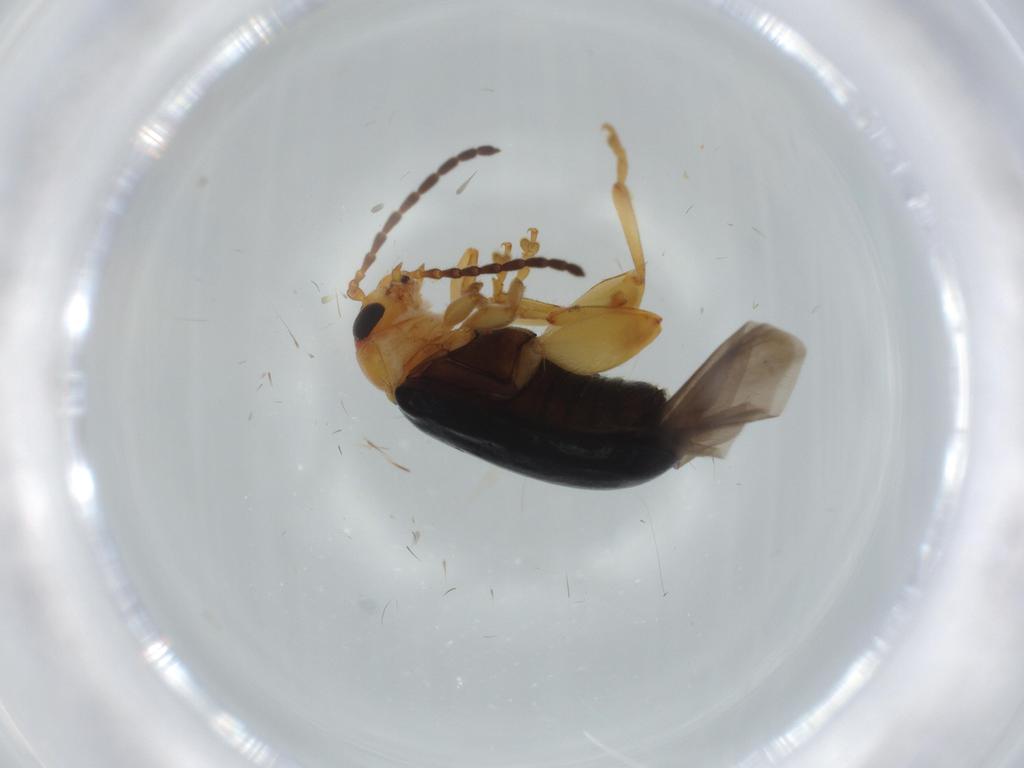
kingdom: Animalia
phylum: Arthropoda
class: Insecta
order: Coleoptera
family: Chrysomelidae
